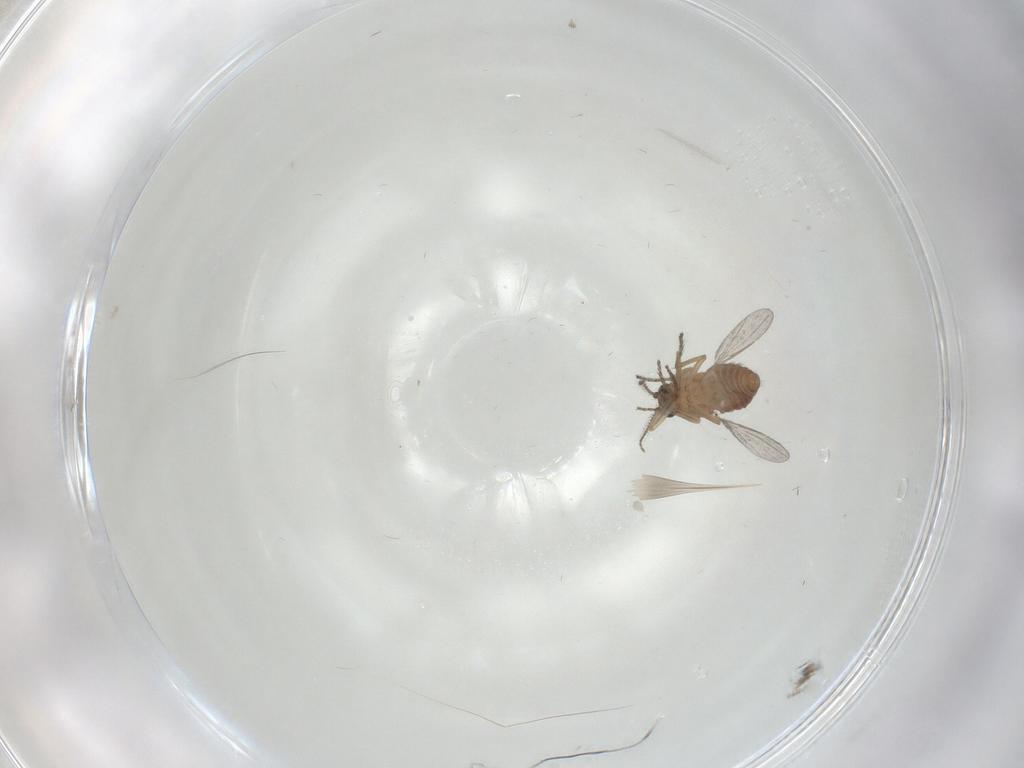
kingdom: Animalia
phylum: Arthropoda
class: Insecta
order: Diptera
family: Ceratopogonidae
